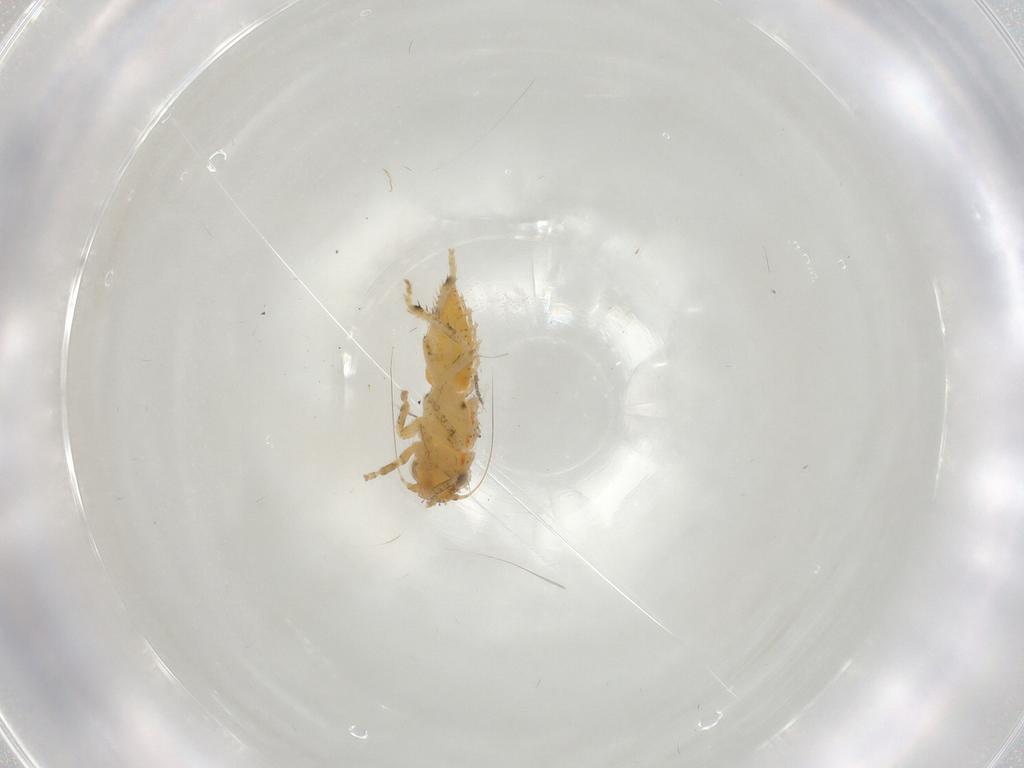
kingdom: Animalia
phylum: Arthropoda
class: Insecta
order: Hemiptera
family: Cicadellidae
